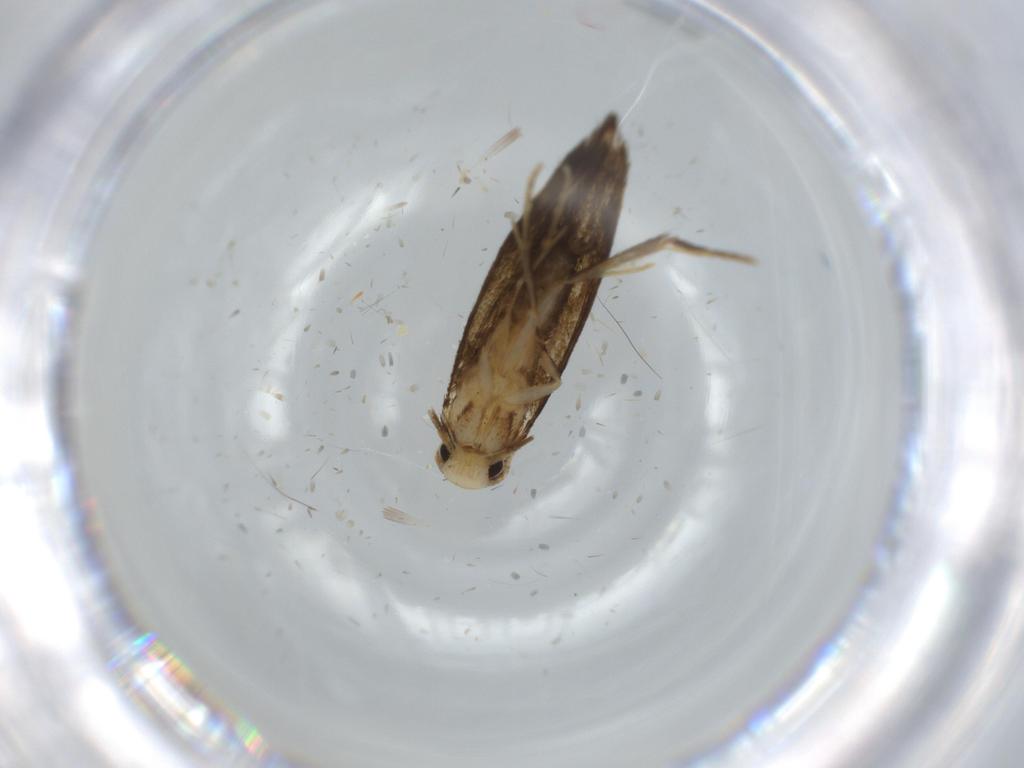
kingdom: Animalia
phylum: Arthropoda
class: Insecta
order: Lepidoptera
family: Tineidae
